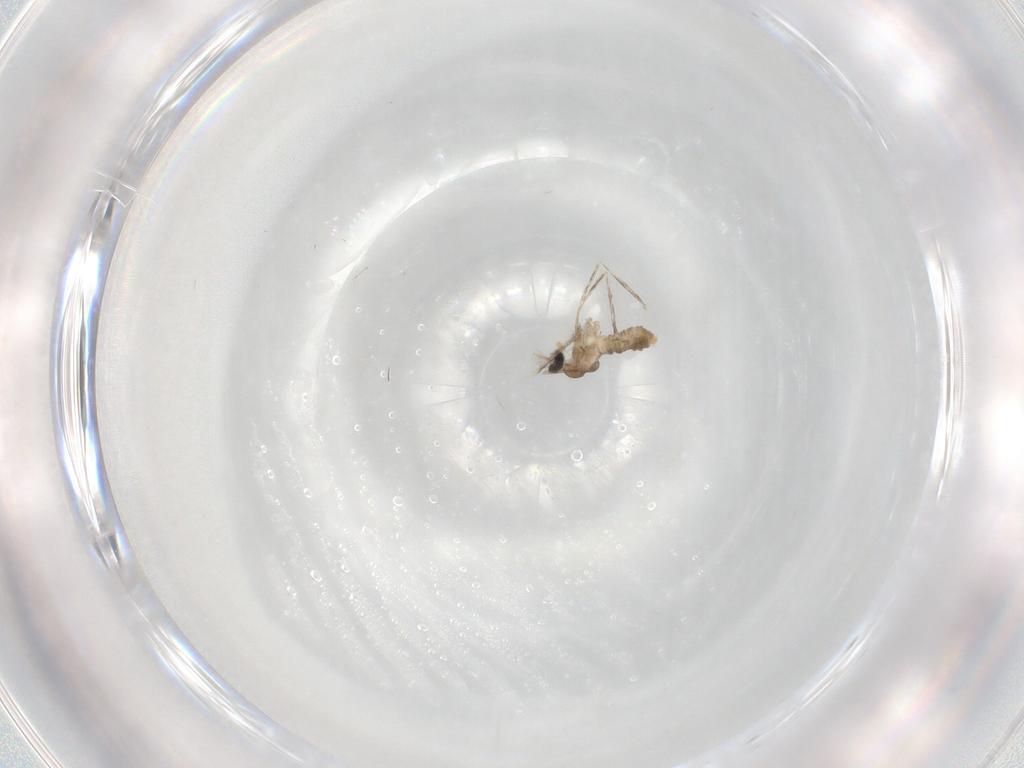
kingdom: Animalia
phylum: Arthropoda
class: Insecta
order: Diptera
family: Cecidomyiidae
